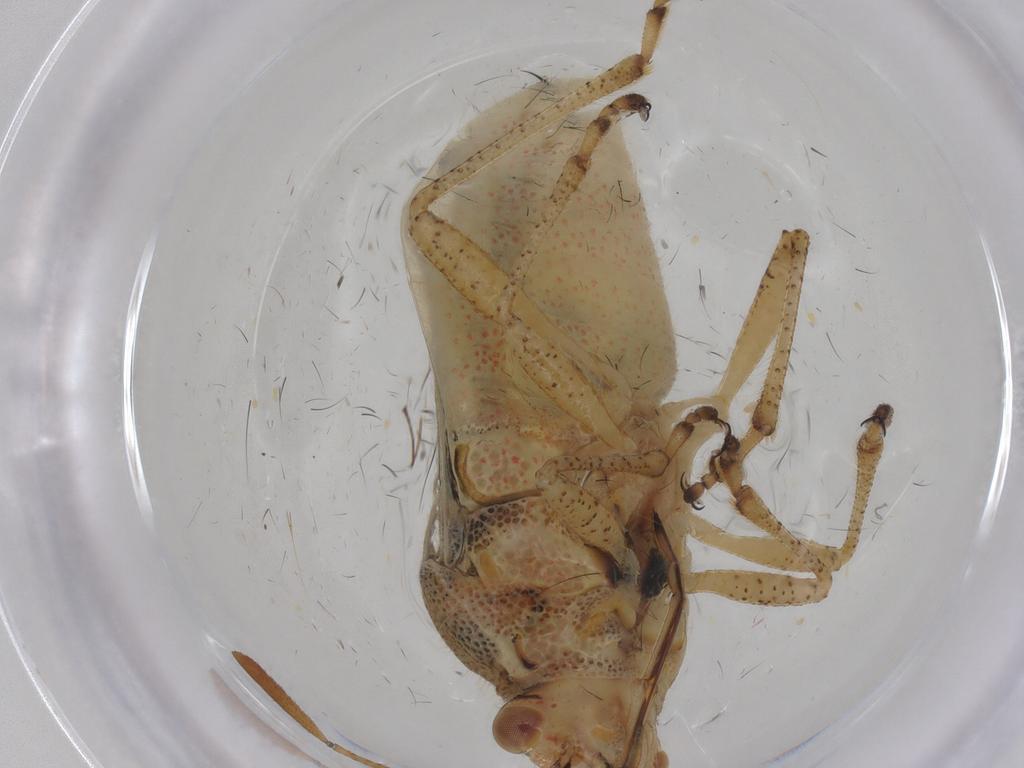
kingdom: Animalia
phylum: Arthropoda
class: Insecta
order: Hemiptera
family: Rhopalidae
